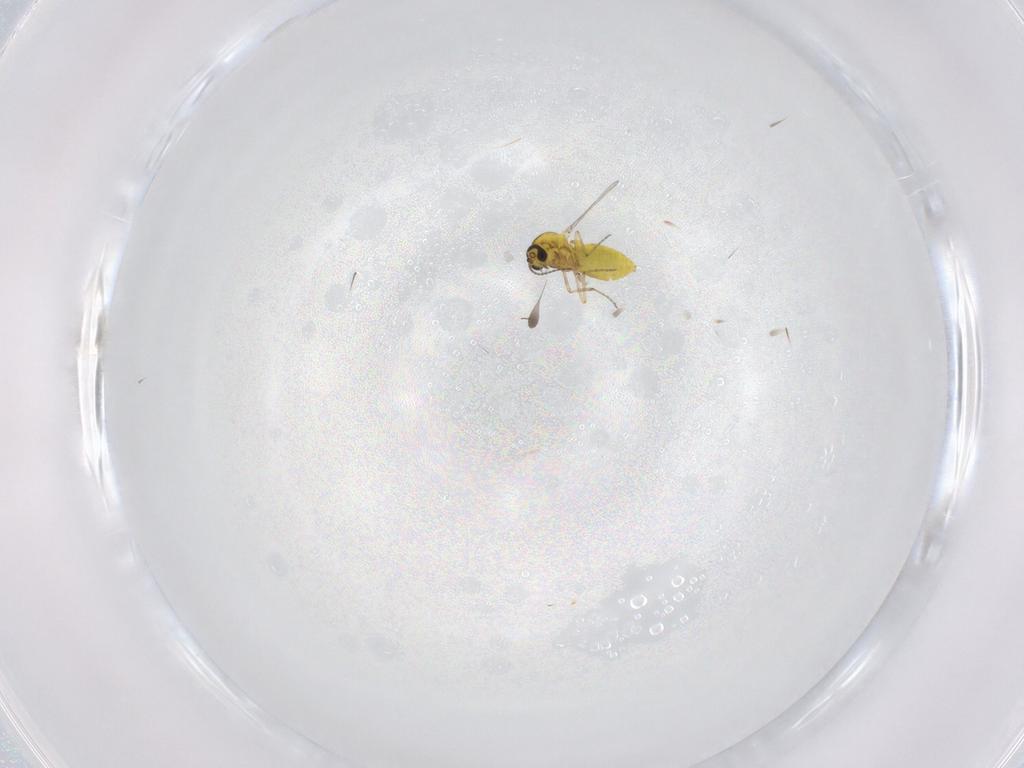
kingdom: Animalia
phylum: Arthropoda
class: Insecta
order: Diptera
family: Ceratopogonidae
